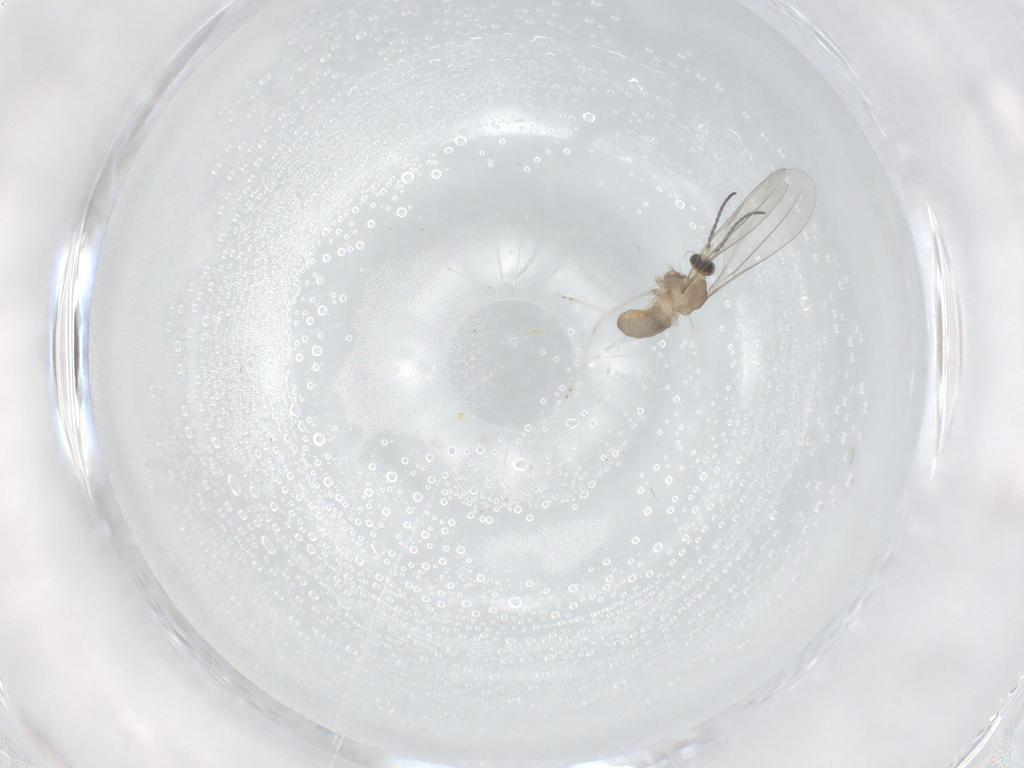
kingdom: Animalia
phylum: Arthropoda
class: Insecta
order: Diptera
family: Cecidomyiidae
